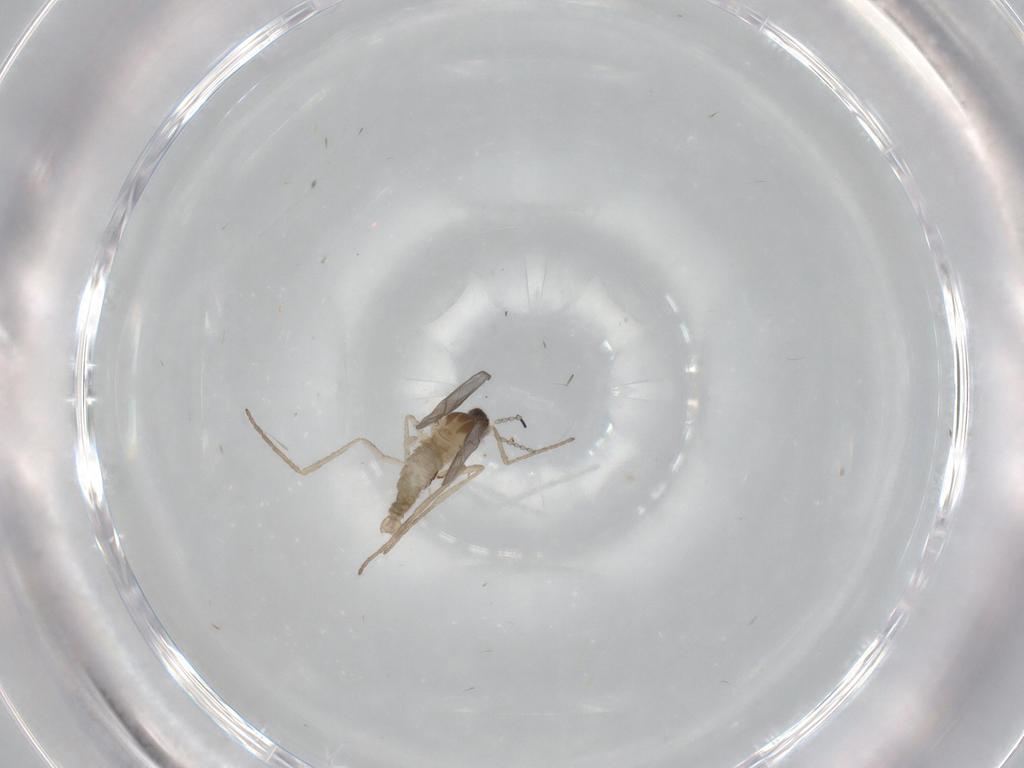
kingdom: Animalia
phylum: Arthropoda
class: Insecta
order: Diptera
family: Cecidomyiidae
